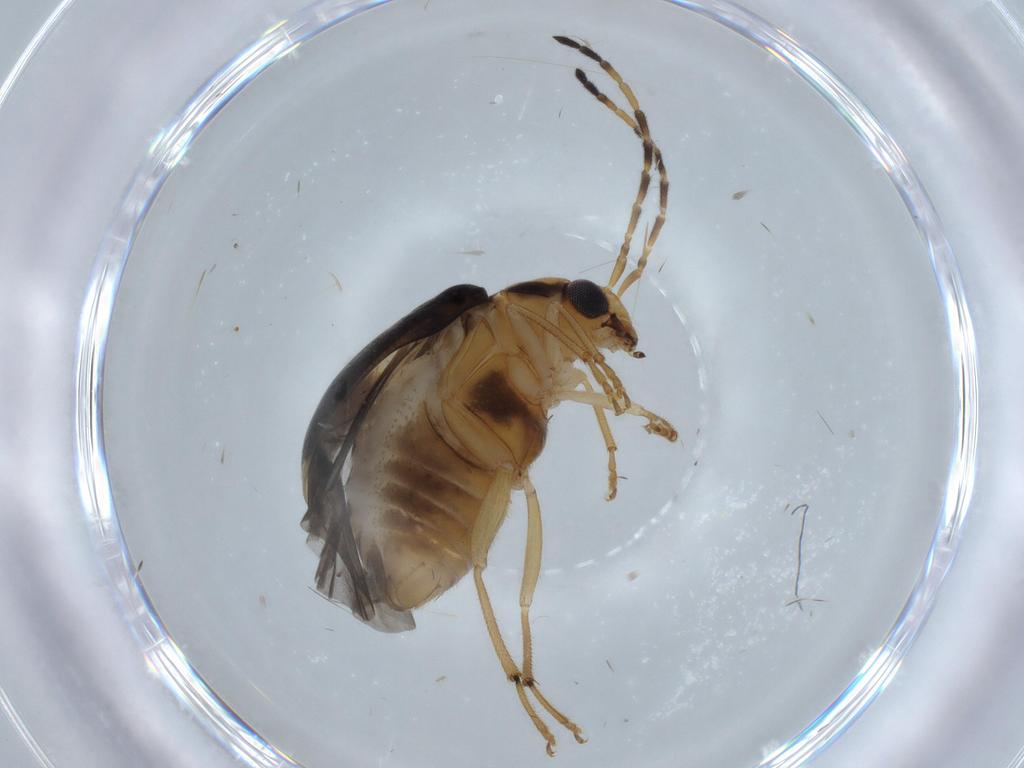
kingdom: Animalia
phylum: Arthropoda
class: Insecta
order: Coleoptera
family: Chrysomelidae
